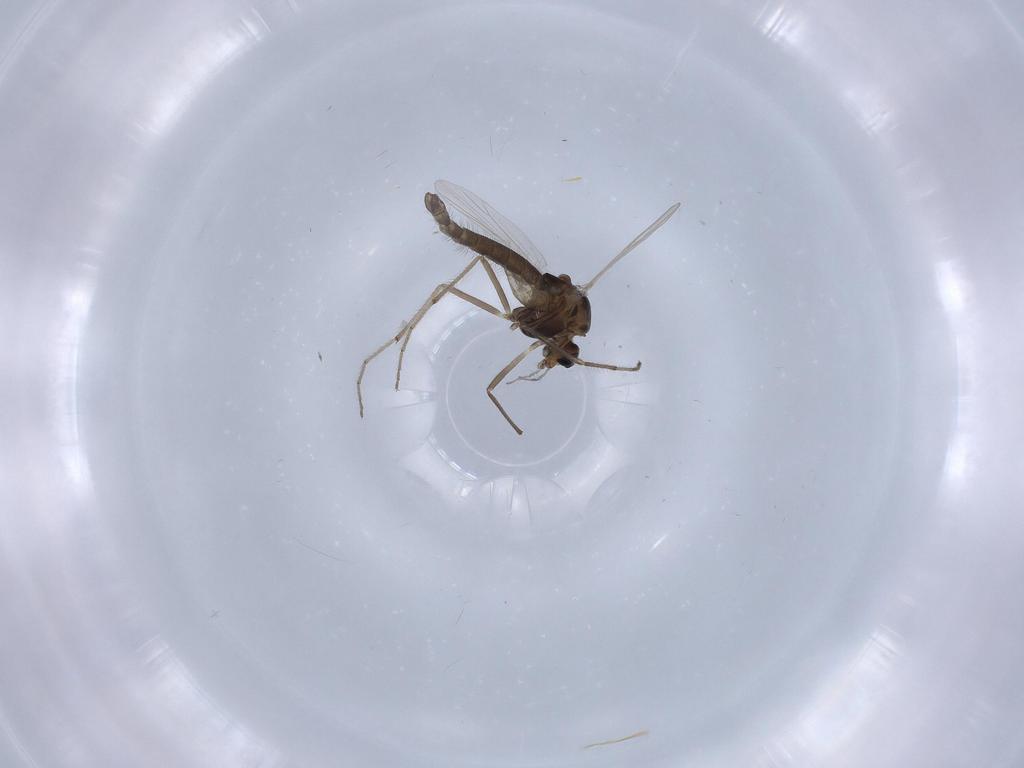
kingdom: Animalia
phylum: Arthropoda
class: Insecta
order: Diptera
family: Chironomidae
